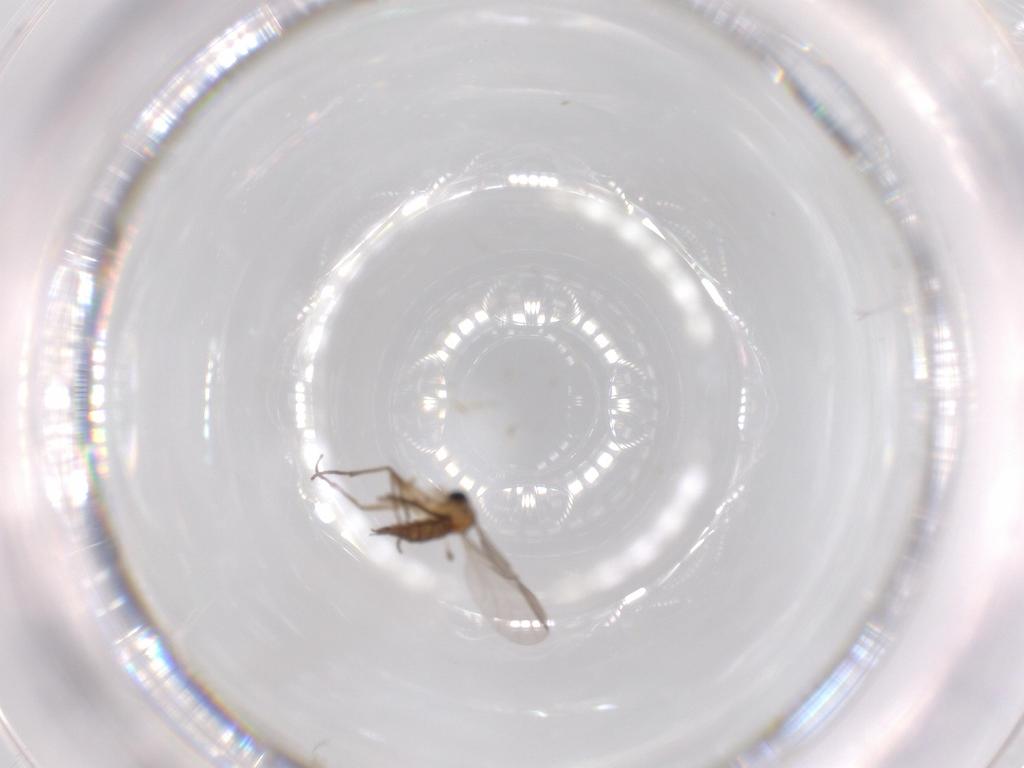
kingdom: Animalia
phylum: Arthropoda
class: Insecta
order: Diptera
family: Sciaridae
